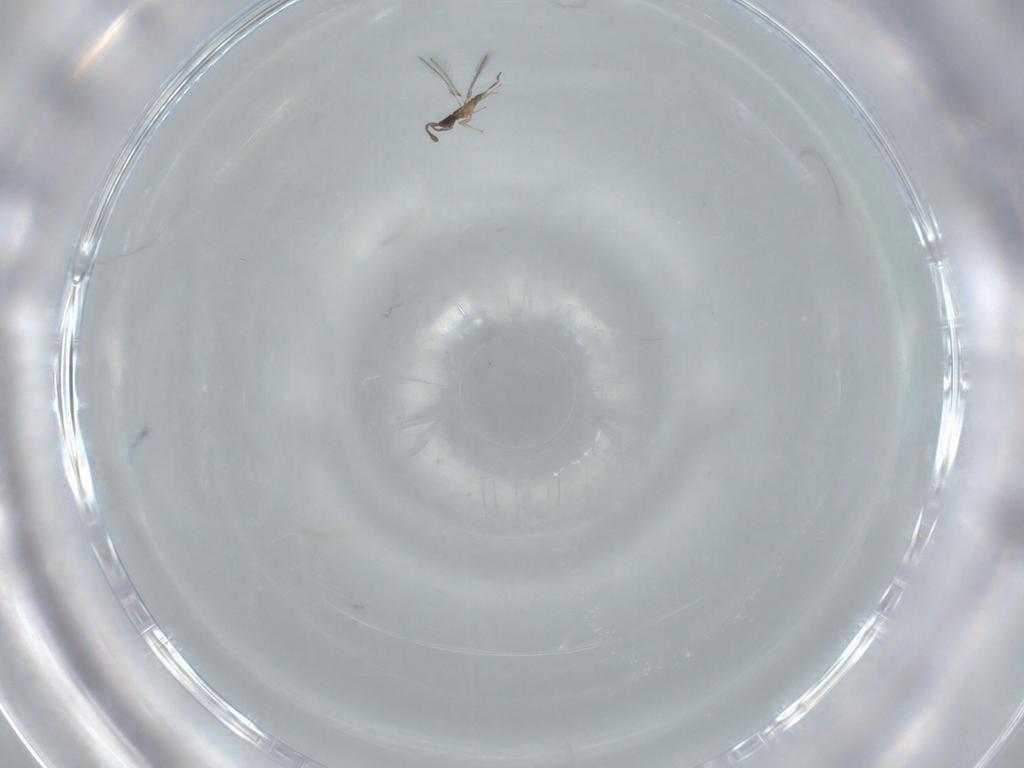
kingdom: Animalia
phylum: Arthropoda
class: Insecta
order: Hymenoptera
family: Mymaridae
